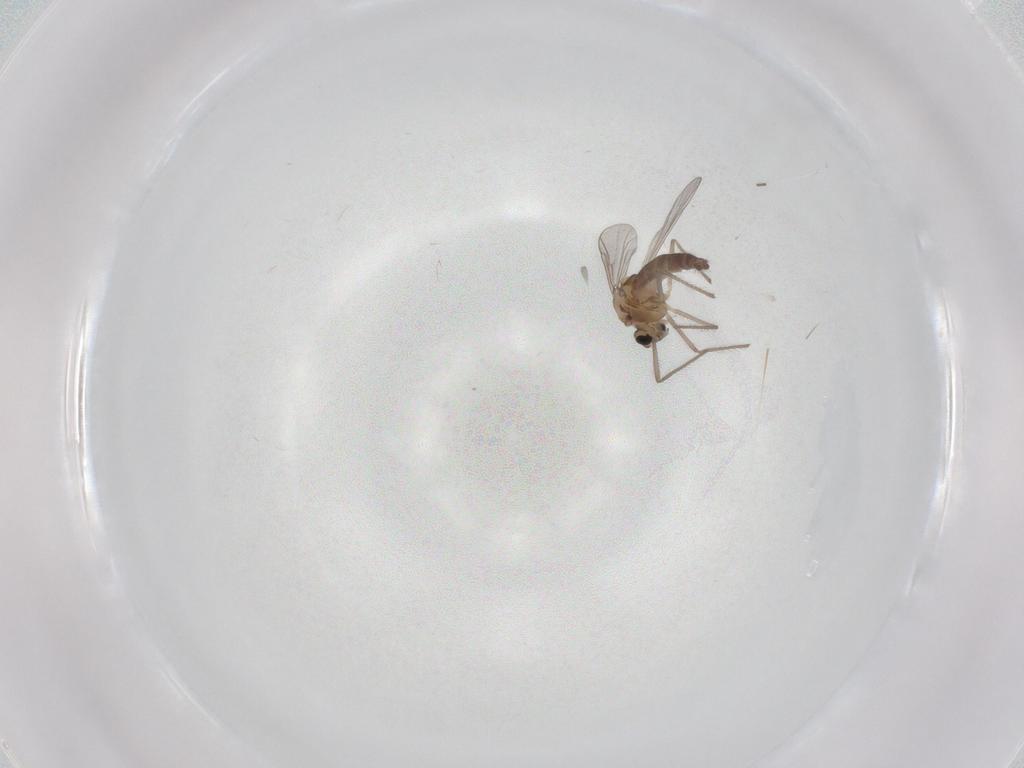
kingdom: Animalia
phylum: Arthropoda
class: Insecta
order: Diptera
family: Chironomidae
